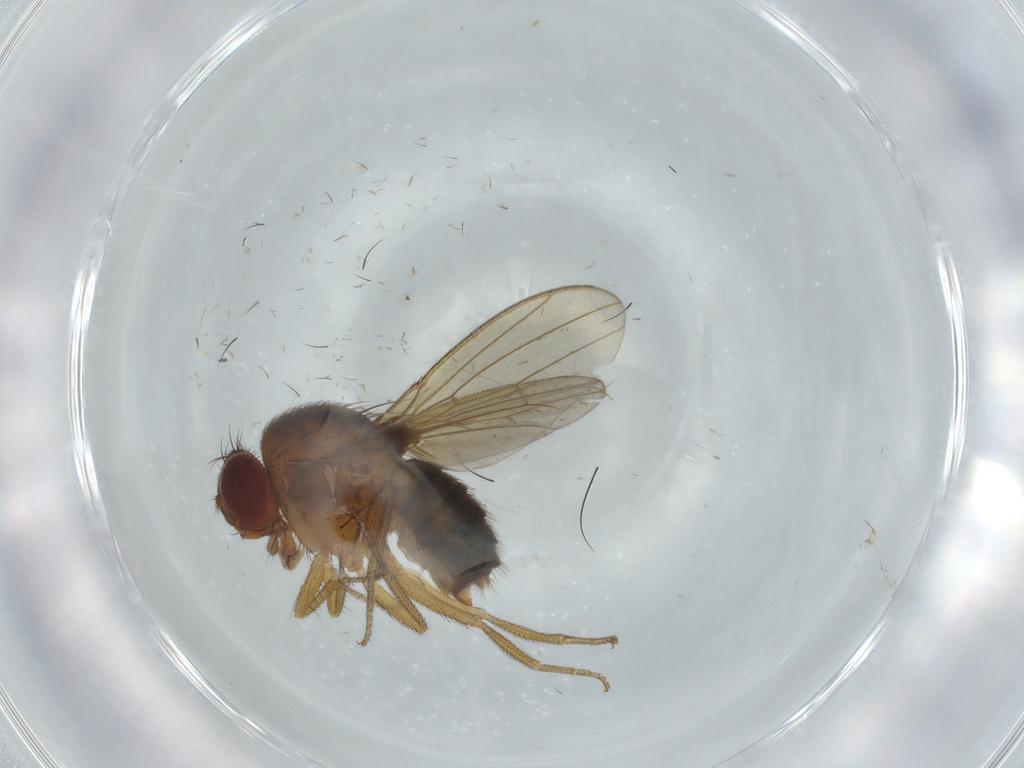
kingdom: Animalia
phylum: Arthropoda
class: Insecta
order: Diptera
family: Drosophilidae
